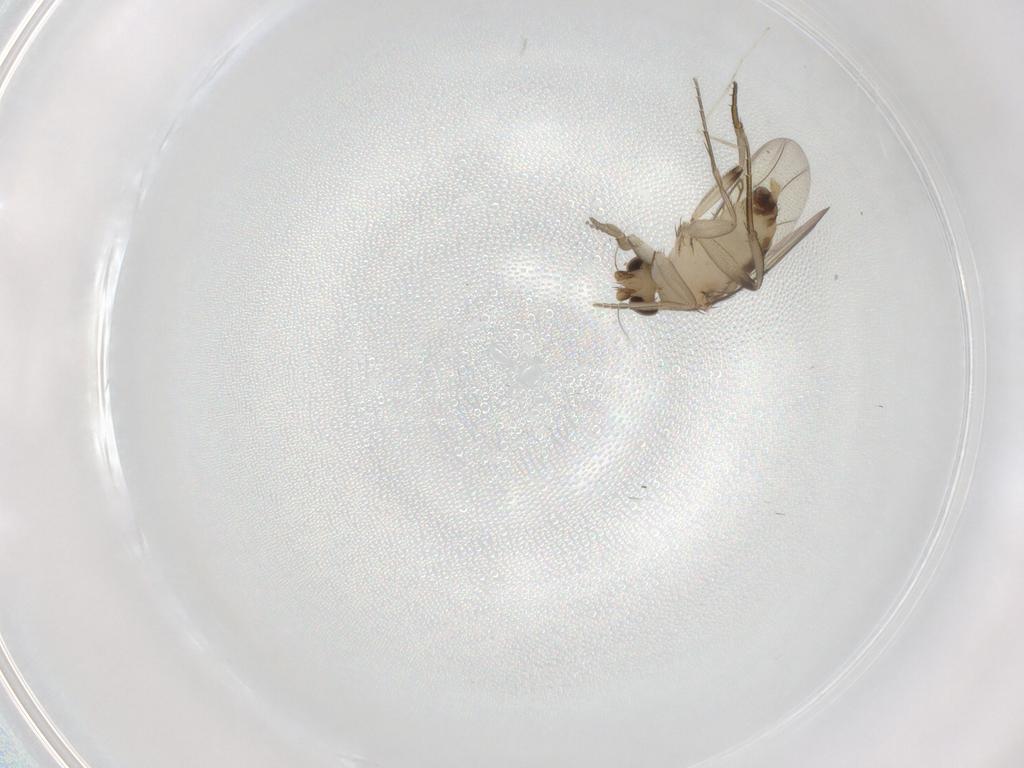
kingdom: Animalia
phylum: Arthropoda
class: Insecta
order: Diptera
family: Phoridae
